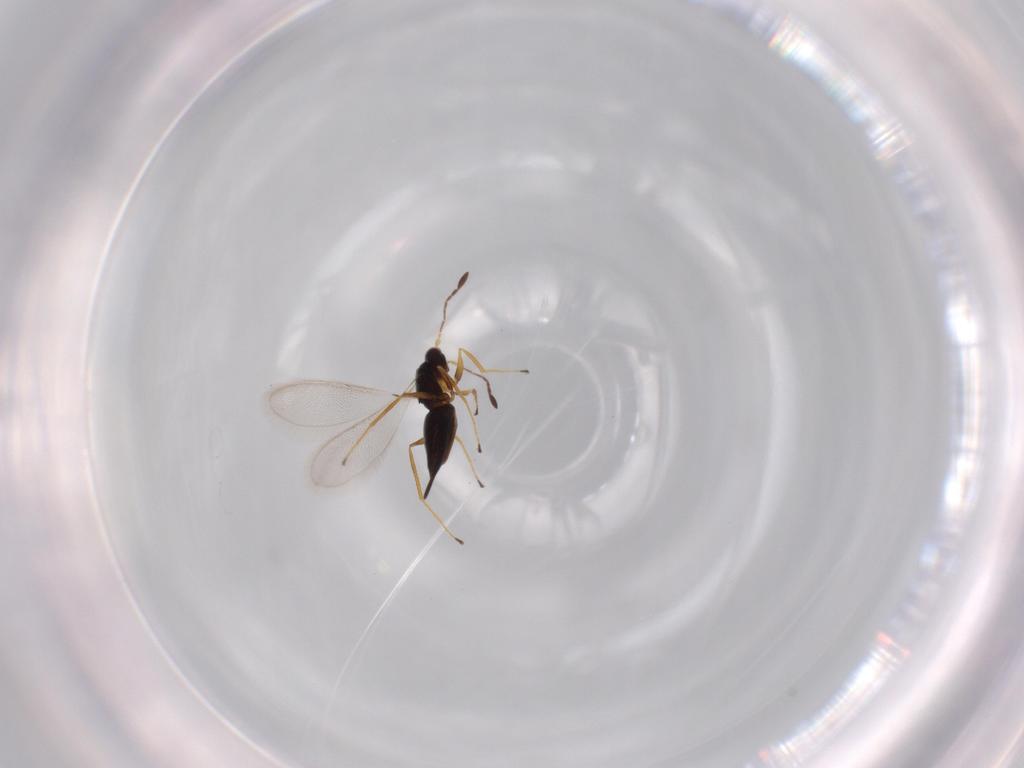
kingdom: Animalia
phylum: Arthropoda
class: Insecta
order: Hymenoptera
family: Mymaridae
